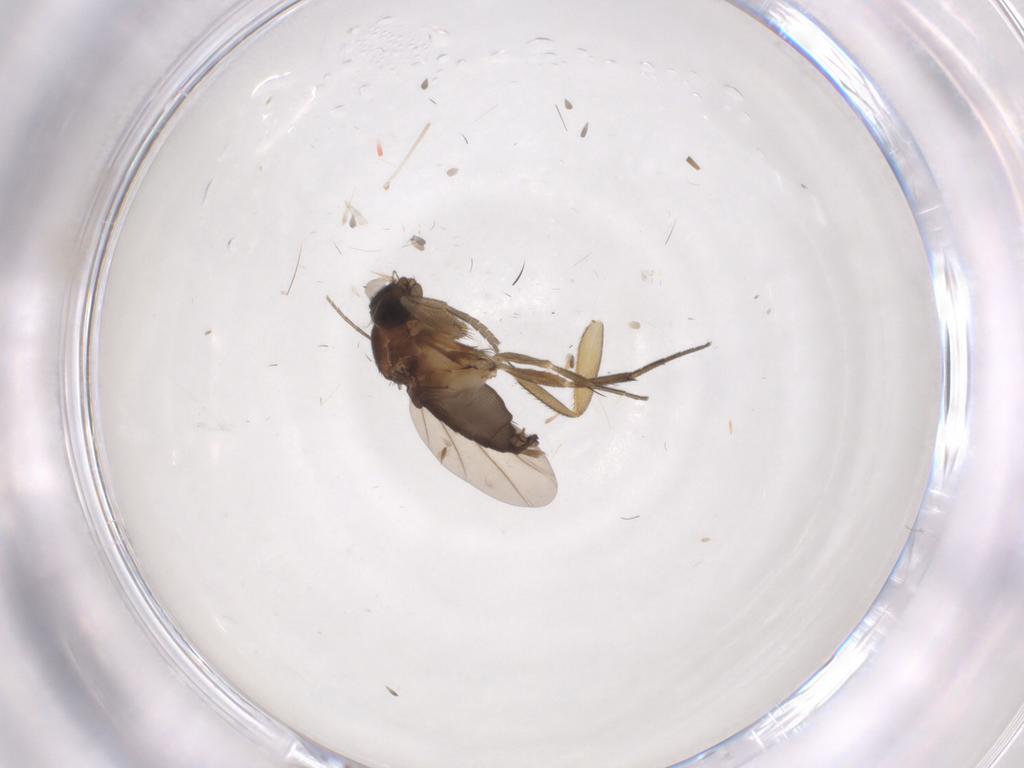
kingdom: Animalia
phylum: Arthropoda
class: Insecta
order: Diptera
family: Chironomidae
